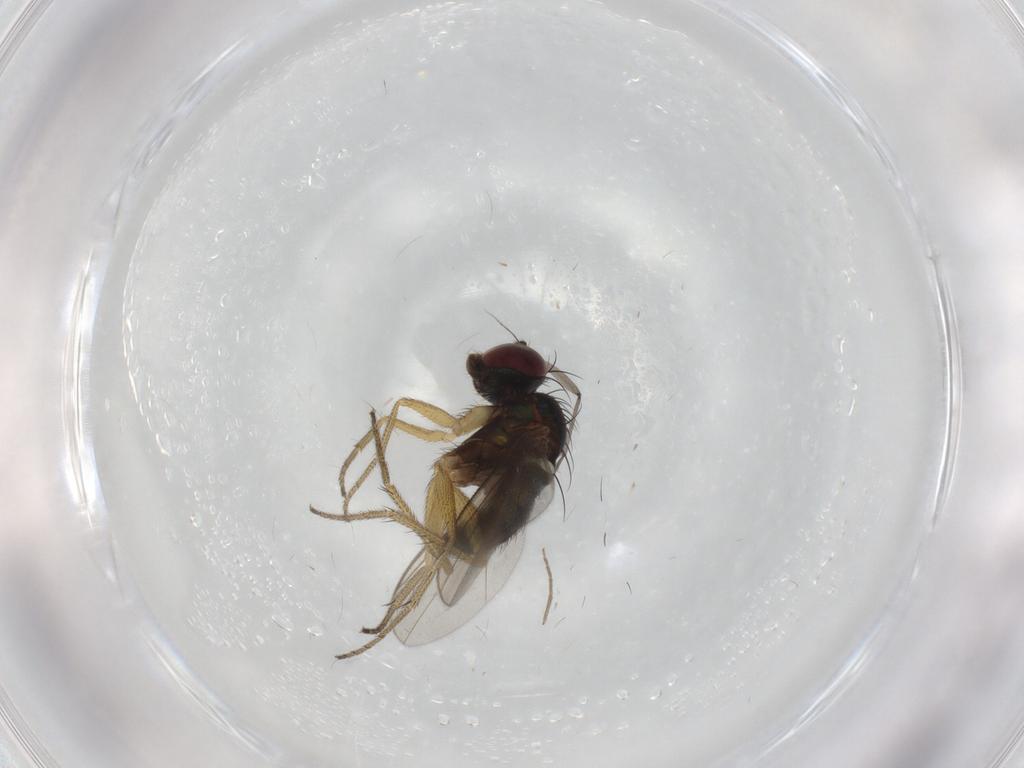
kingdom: Animalia
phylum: Arthropoda
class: Insecta
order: Diptera
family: Sciaridae
